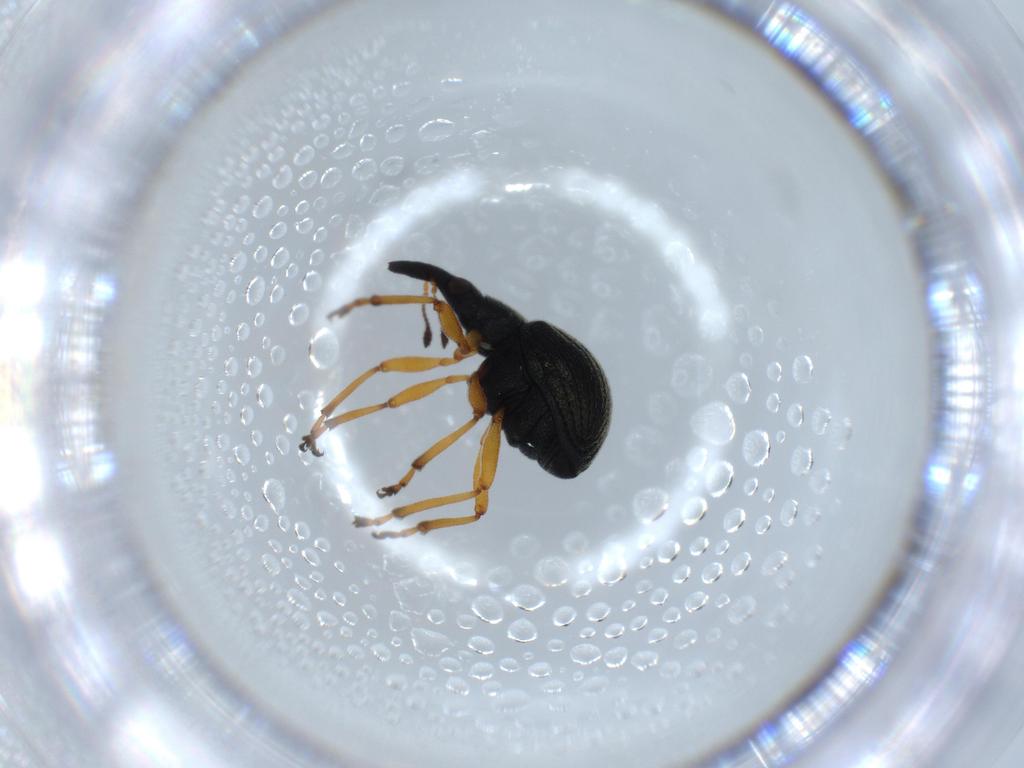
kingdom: Animalia
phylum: Arthropoda
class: Insecta
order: Coleoptera
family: Brentidae
